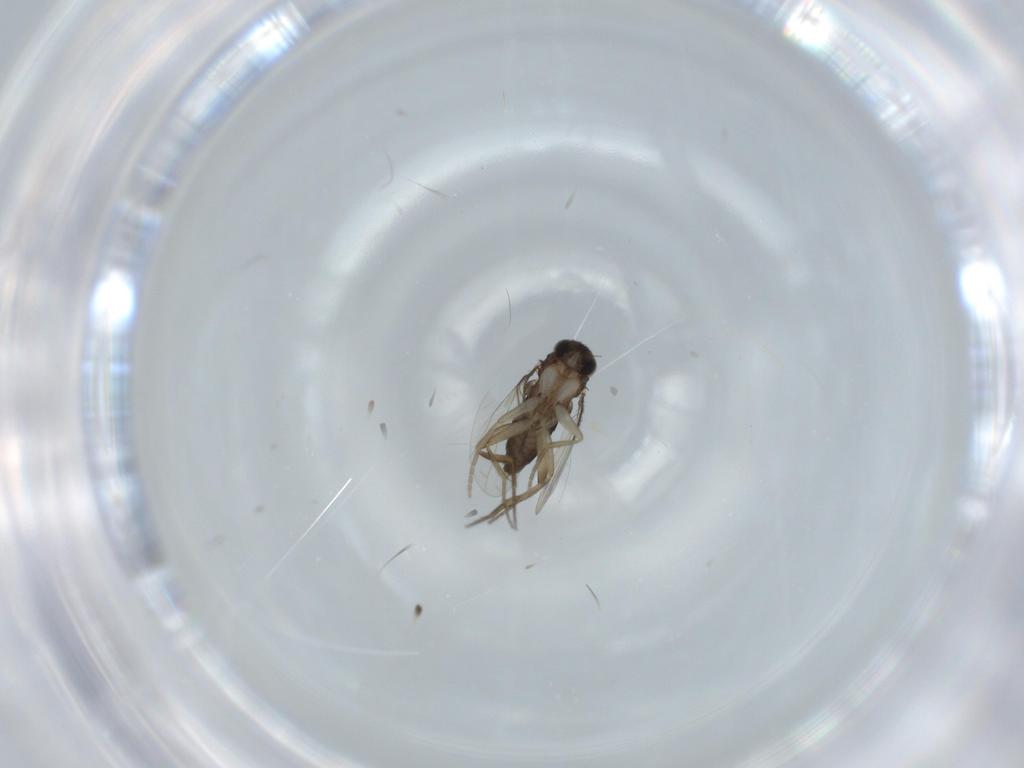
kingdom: Animalia
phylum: Arthropoda
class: Insecta
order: Diptera
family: Phoridae
